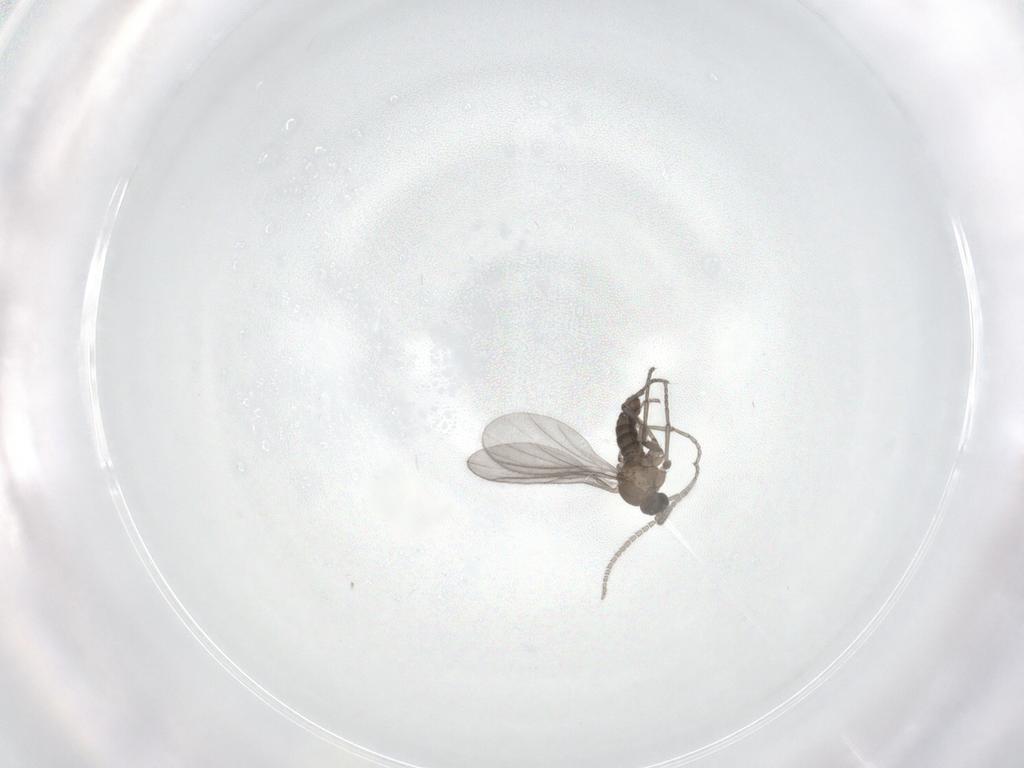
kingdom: Animalia
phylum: Arthropoda
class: Insecta
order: Diptera
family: Sciaridae
